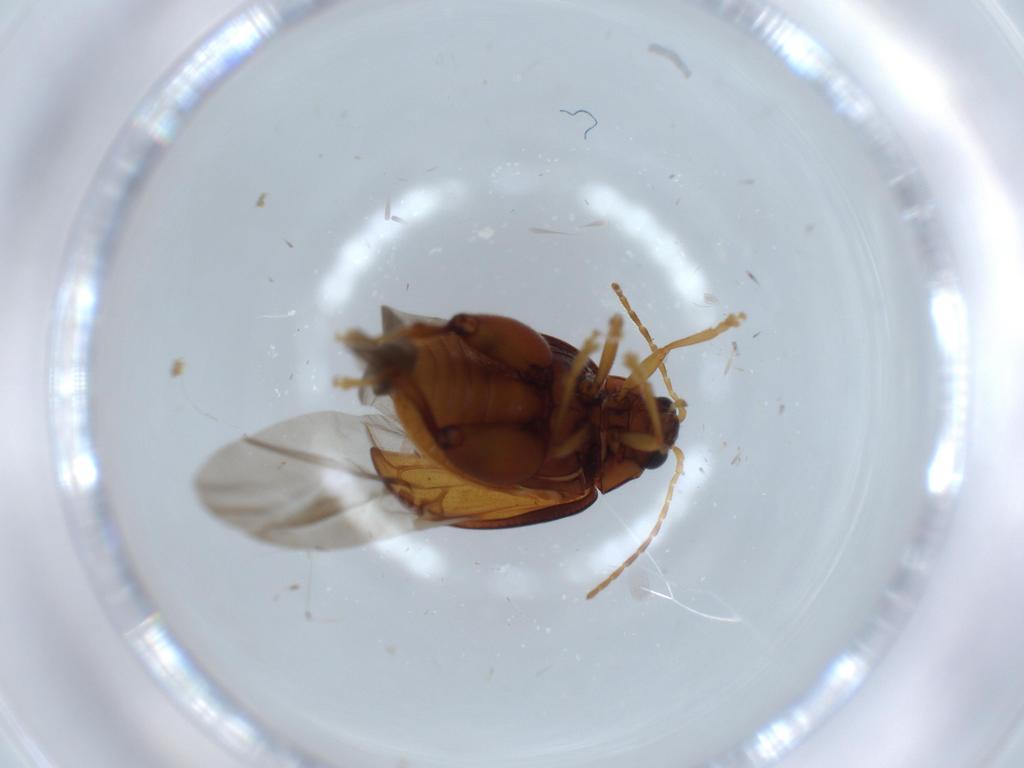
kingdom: Animalia
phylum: Arthropoda
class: Insecta
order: Coleoptera
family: Chrysomelidae
